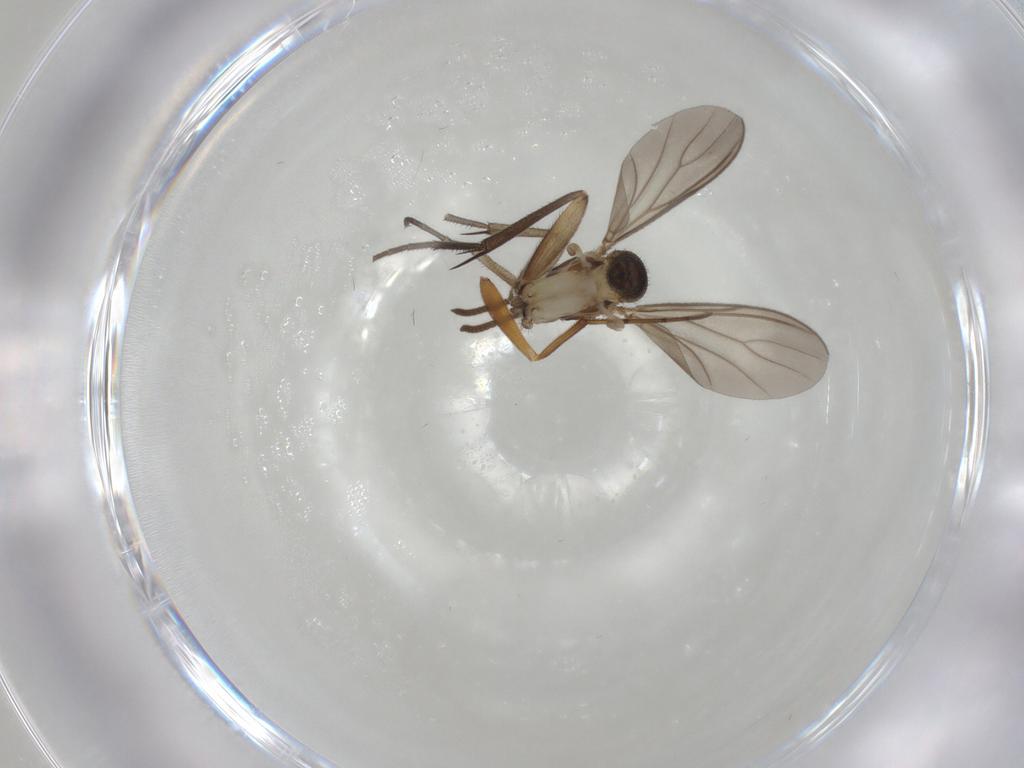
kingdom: Animalia
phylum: Arthropoda
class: Insecta
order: Diptera
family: Mycetophilidae
